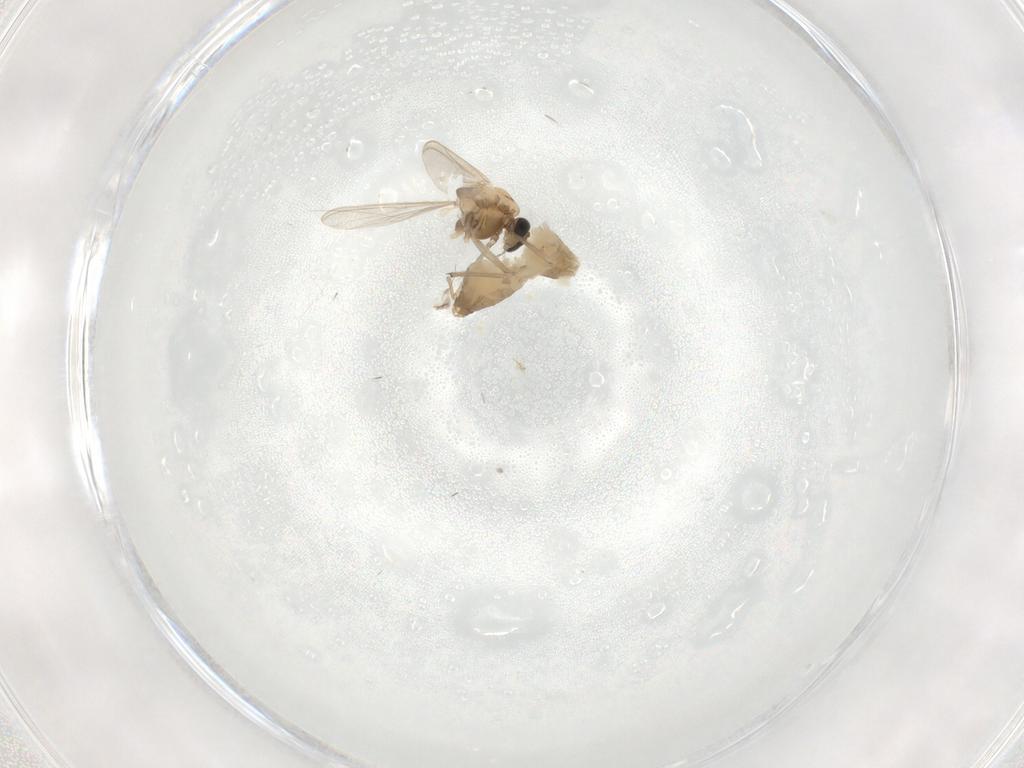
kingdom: Animalia
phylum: Arthropoda
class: Insecta
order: Diptera
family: Chironomidae
